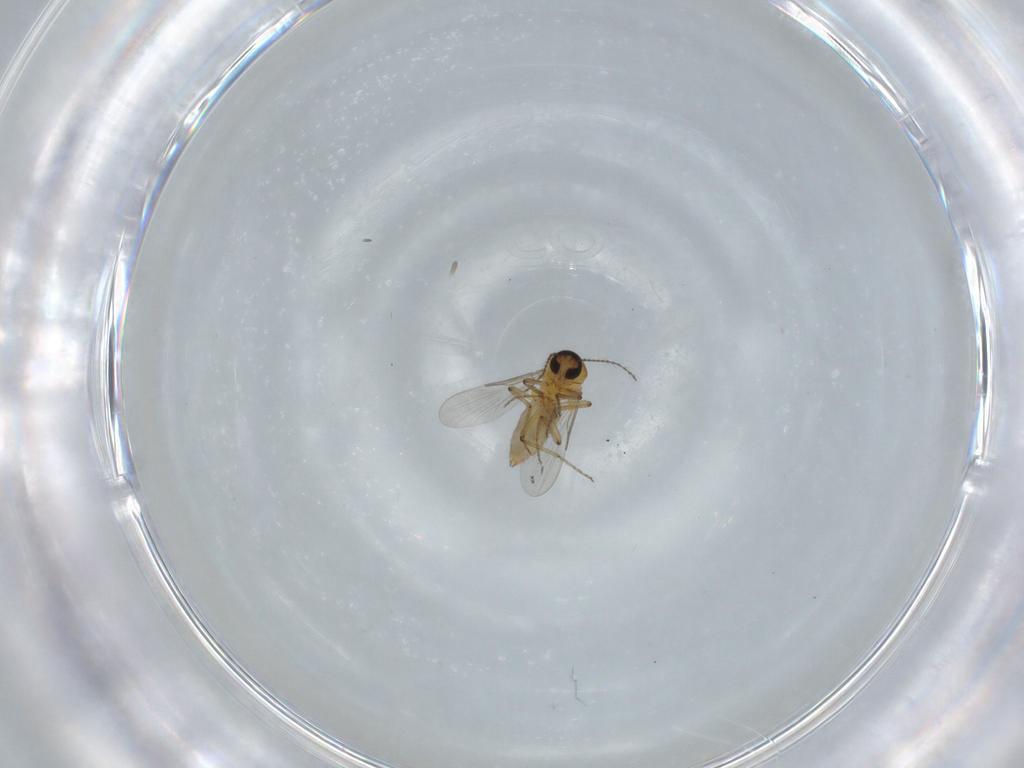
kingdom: Animalia
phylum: Arthropoda
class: Insecta
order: Diptera
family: Ceratopogonidae
